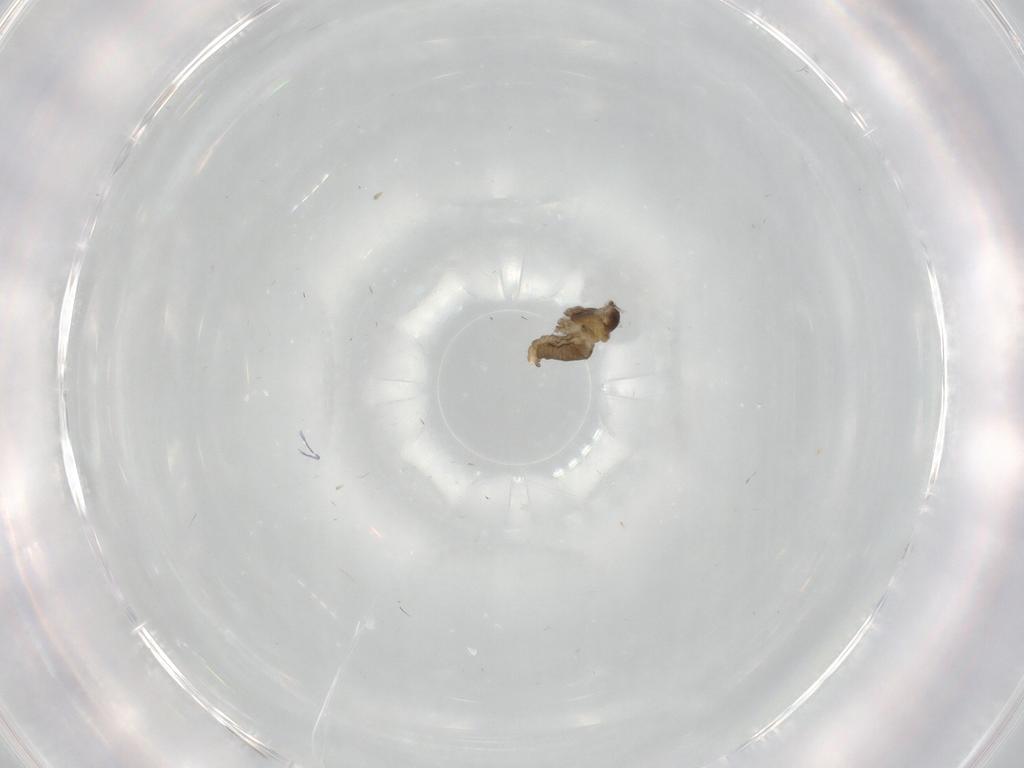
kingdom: Animalia
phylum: Arthropoda
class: Insecta
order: Diptera
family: Cecidomyiidae
